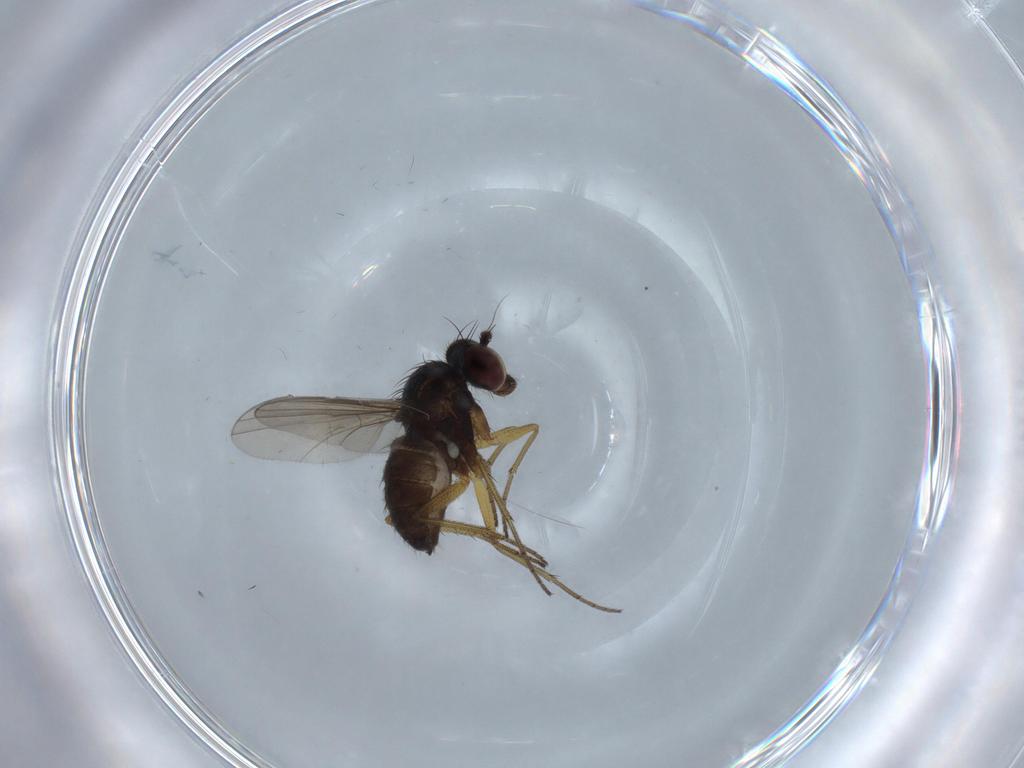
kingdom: Animalia
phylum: Arthropoda
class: Insecta
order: Diptera
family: Dolichopodidae
